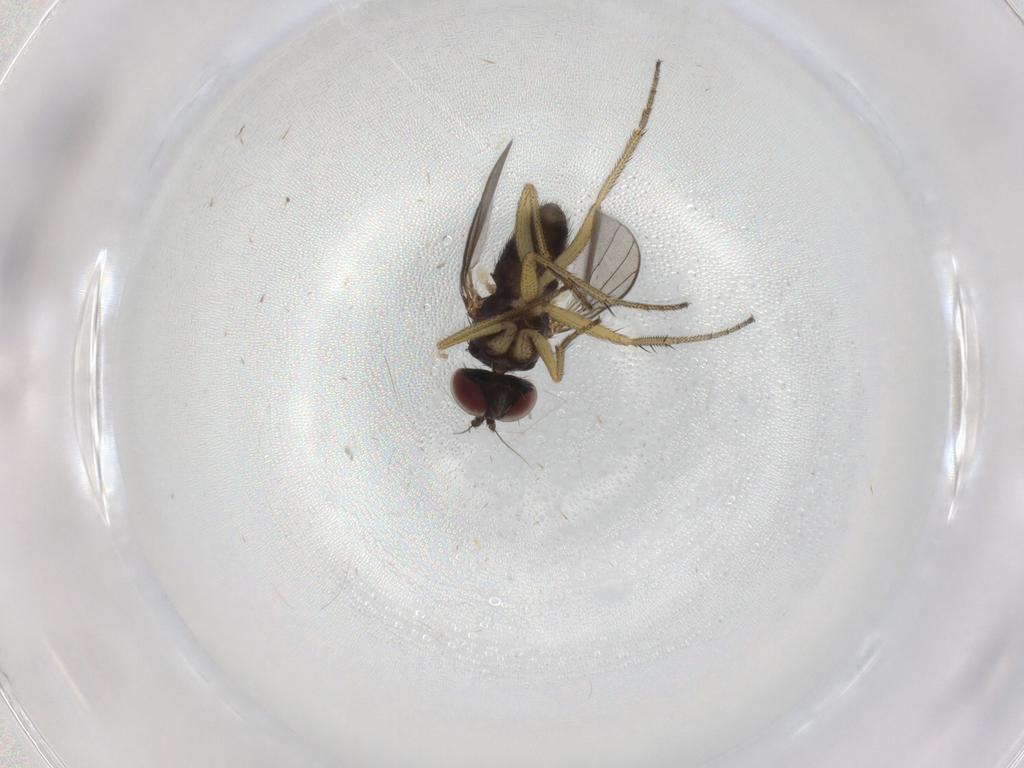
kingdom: Animalia
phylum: Arthropoda
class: Insecta
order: Diptera
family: Dolichopodidae
